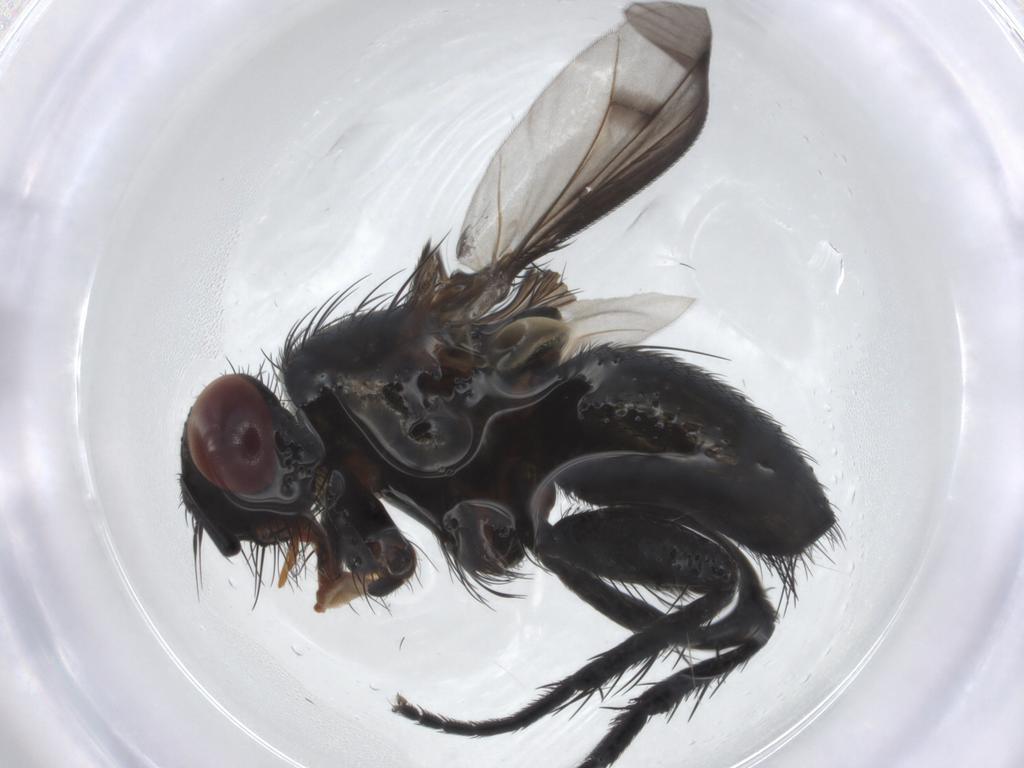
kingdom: Animalia
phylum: Arthropoda
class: Insecta
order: Diptera
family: Tachinidae
